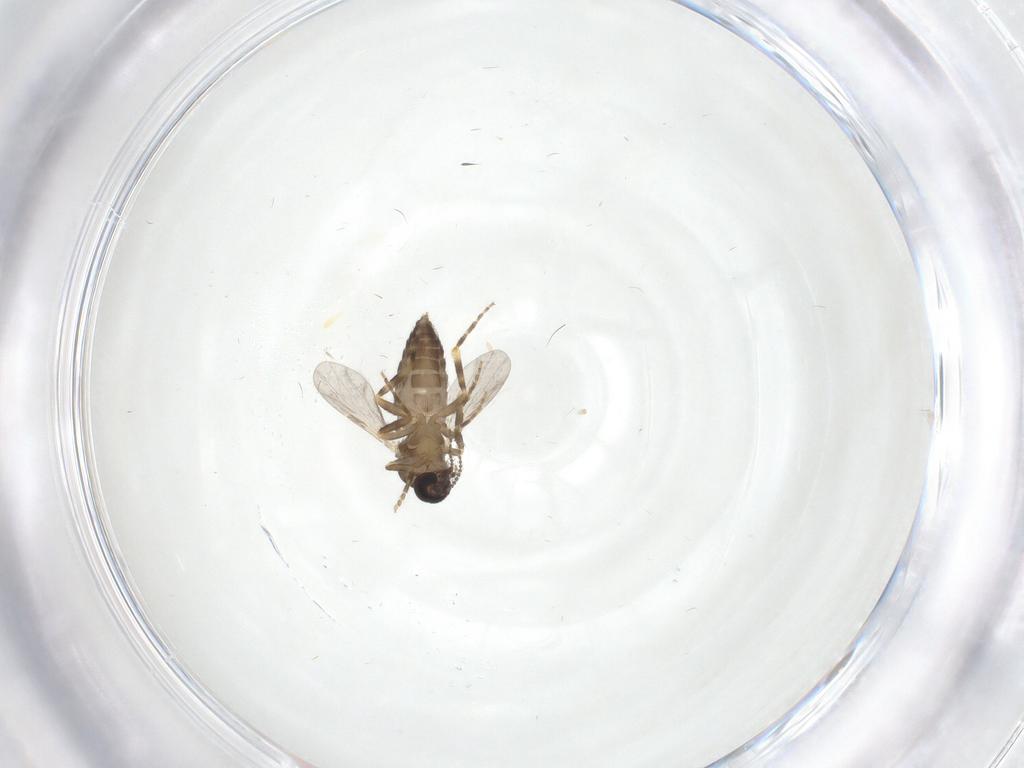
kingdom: Animalia
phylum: Arthropoda
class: Insecta
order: Diptera
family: Ceratopogonidae
